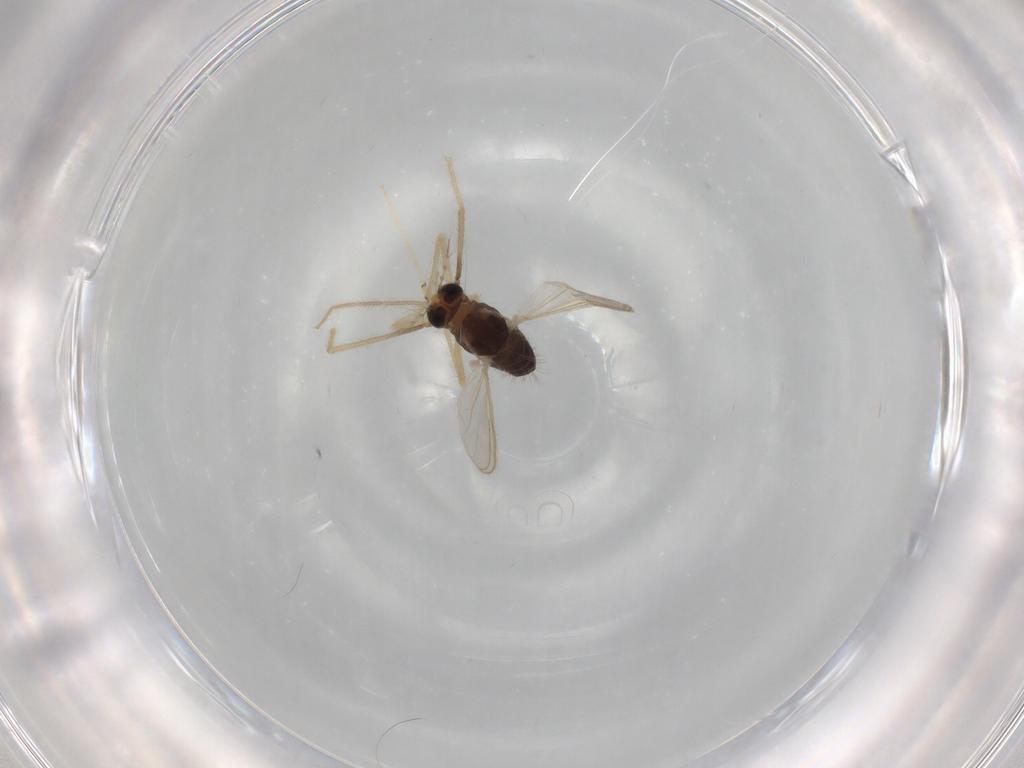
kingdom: Animalia
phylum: Arthropoda
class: Insecta
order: Diptera
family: Chironomidae
